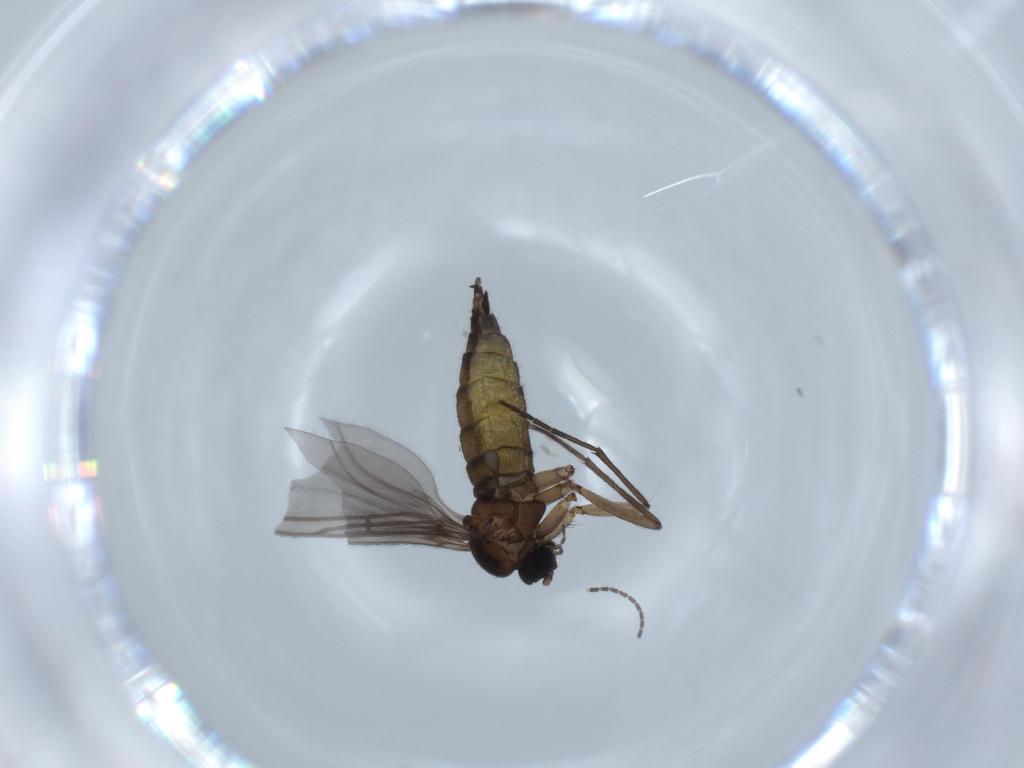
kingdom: Animalia
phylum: Arthropoda
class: Insecta
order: Diptera
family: Sciaridae
